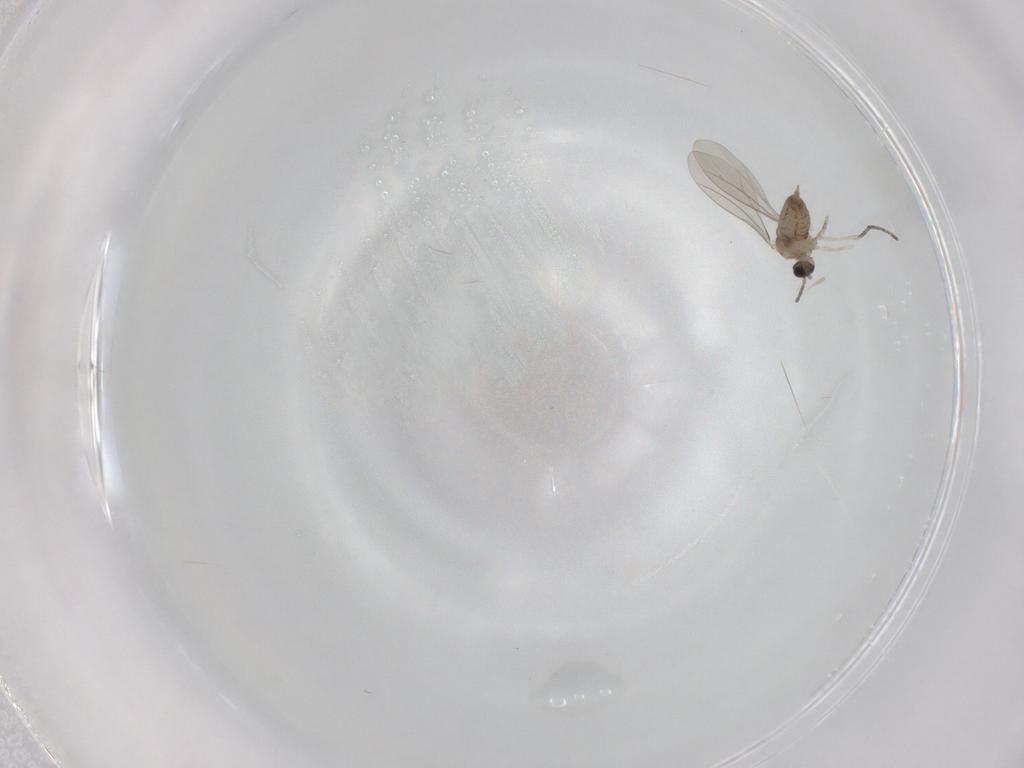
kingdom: Animalia
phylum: Arthropoda
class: Insecta
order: Diptera
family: Cecidomyiidae
